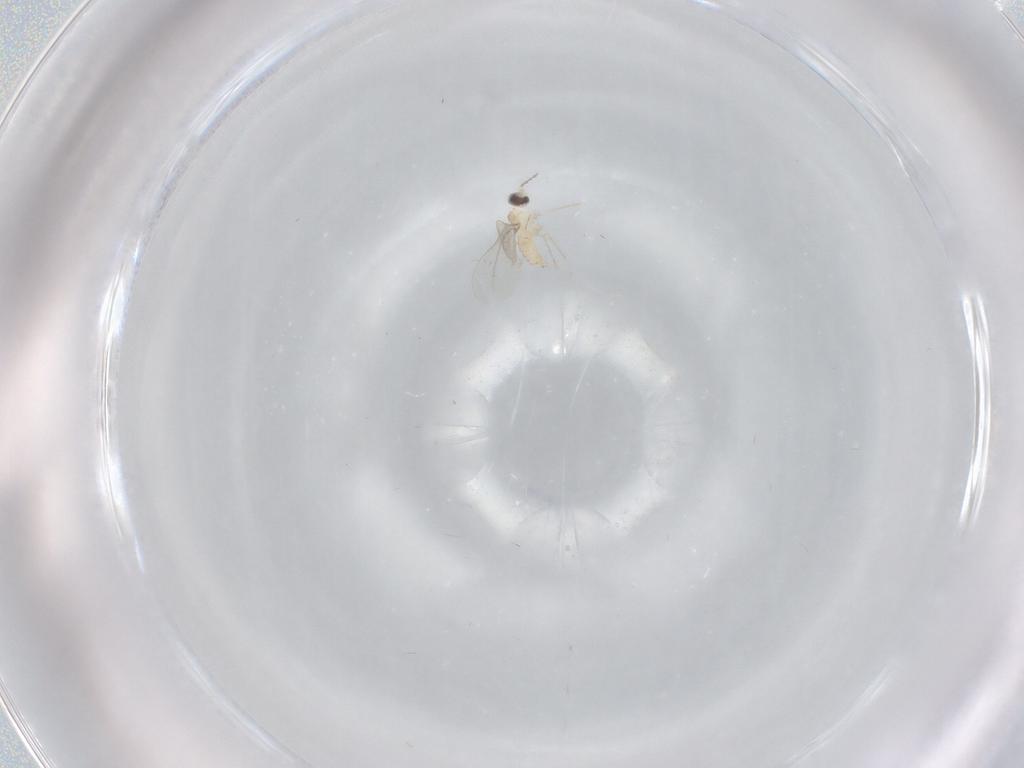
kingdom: Animalia
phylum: Arthropoda
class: Insecta
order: Diptera
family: Cecidomyiidae
